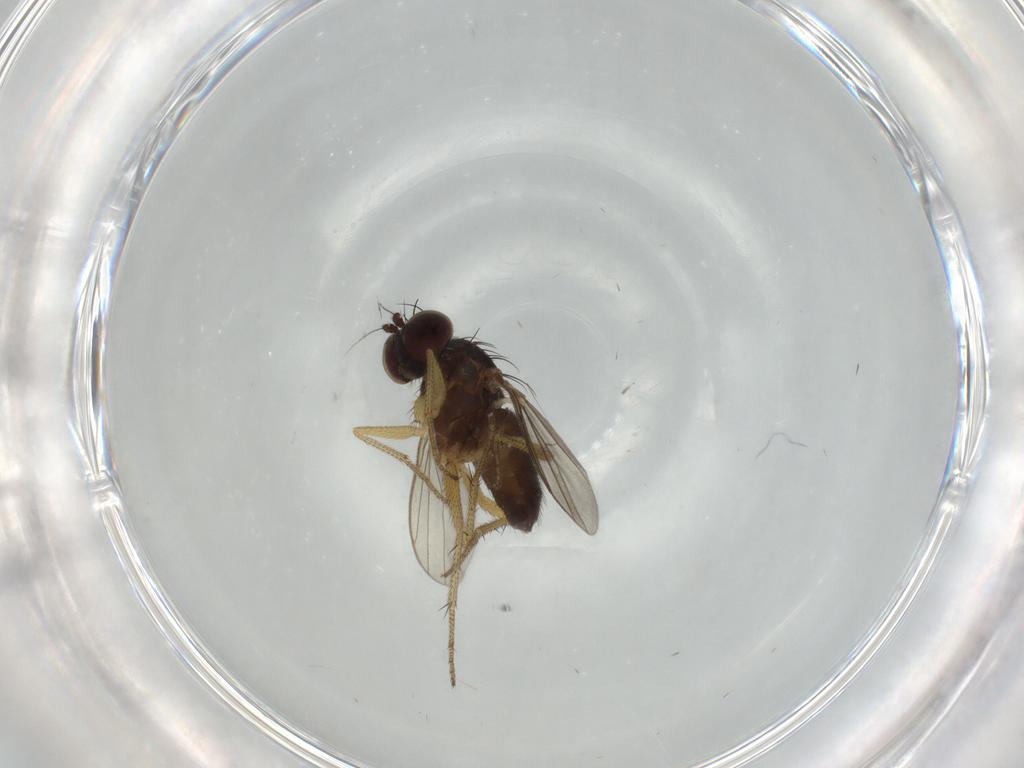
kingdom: Animalia
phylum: Arthropoda
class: Insecta
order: Diptera
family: Dolichopodidae
